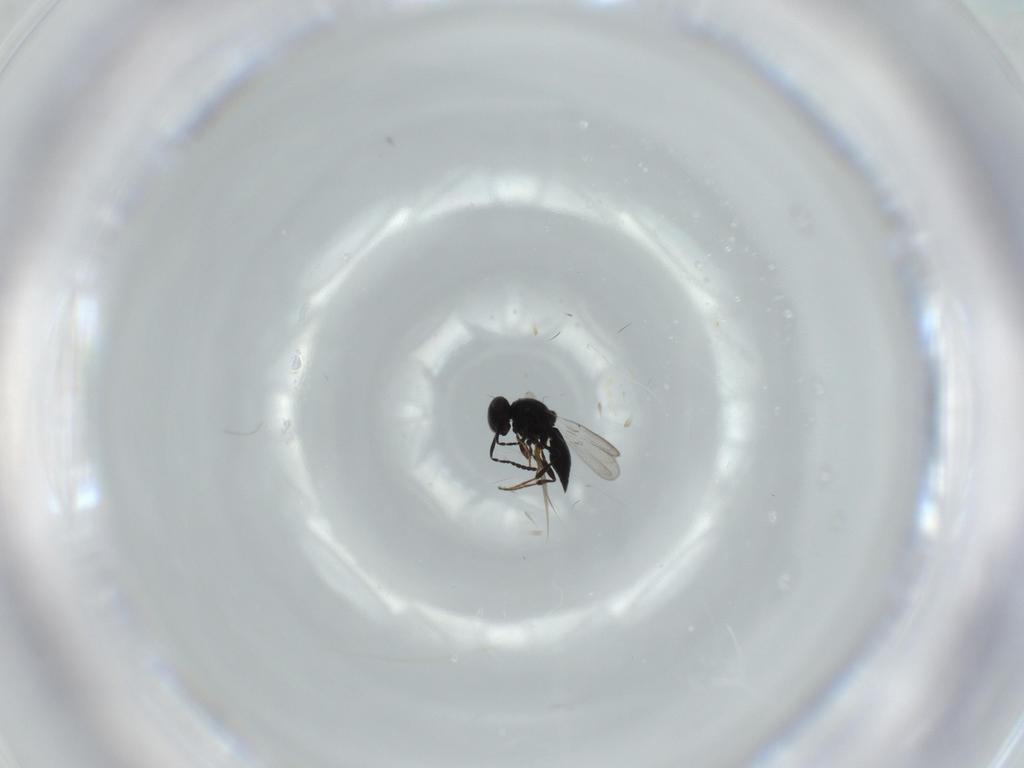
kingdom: Animalia
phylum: Arthropoda
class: Insecta
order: Diptera
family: Mythicomyiidae
